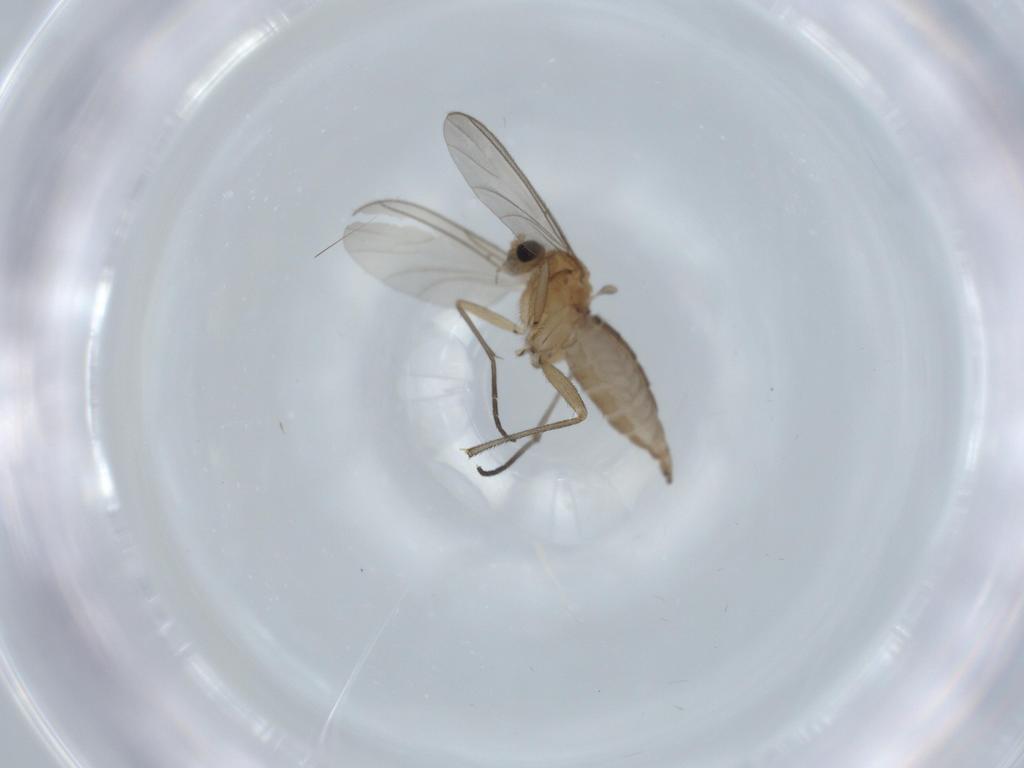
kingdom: Animalia
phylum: Arthropoda
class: Insecta
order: Diptera
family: Sciaridae
